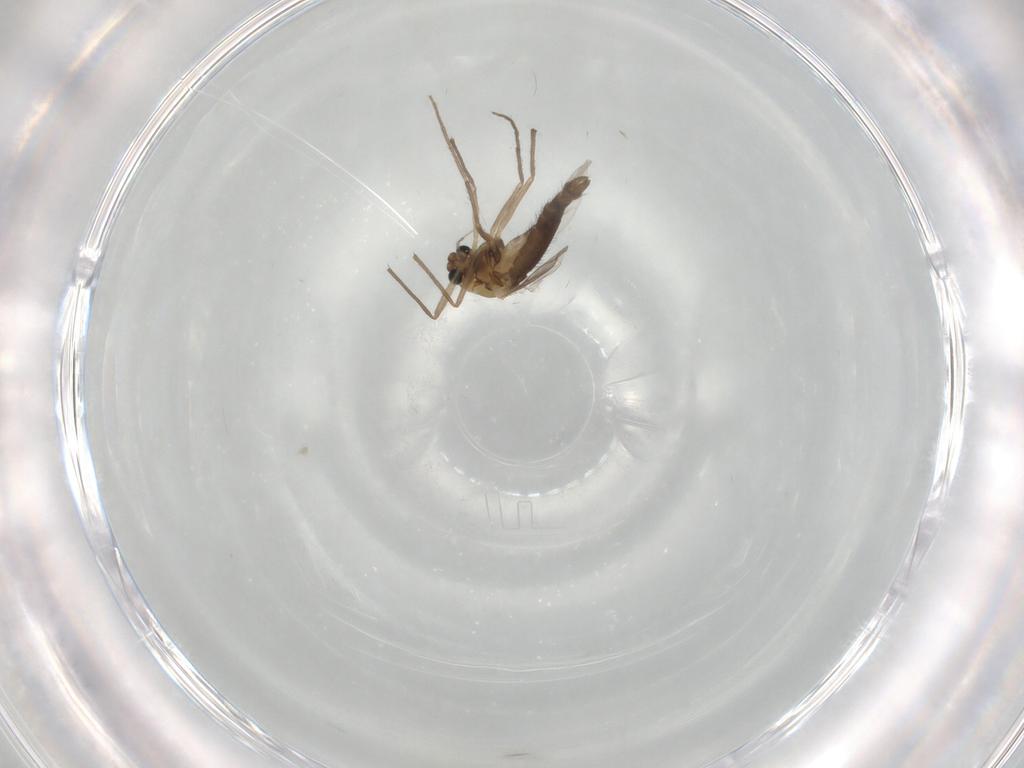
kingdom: Animalia
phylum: Arthropoda
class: Insecta
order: Diptera
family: Chironomidae
